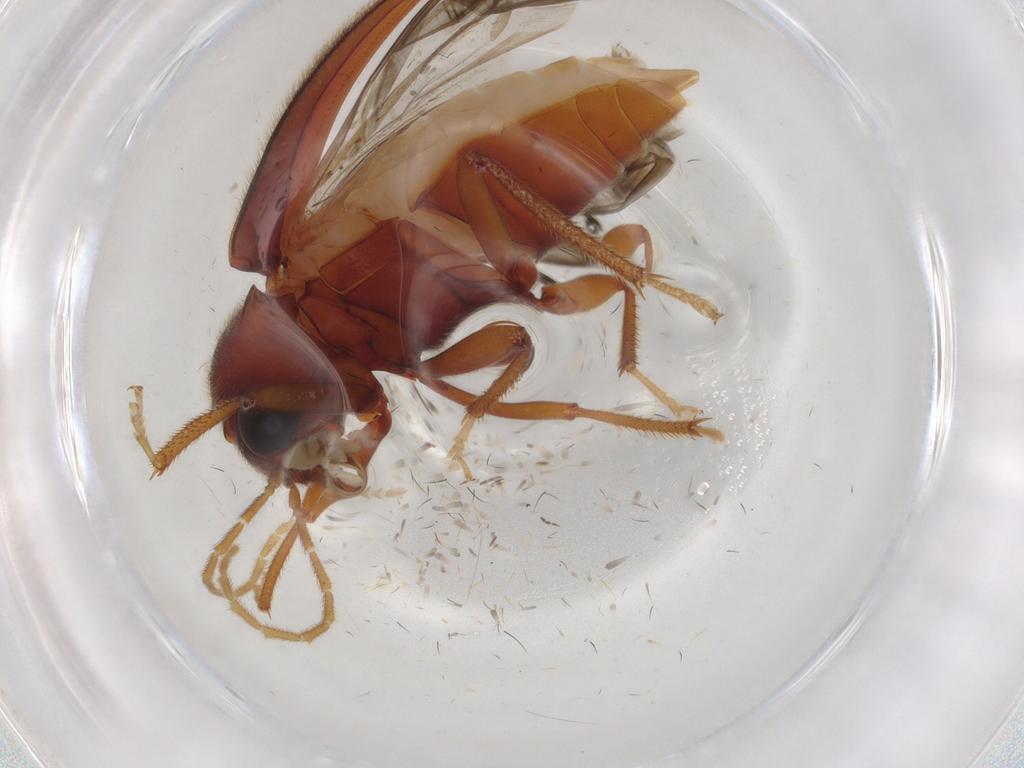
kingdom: Animalia
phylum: Arthropoda
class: Insecta
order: Coleoptera
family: Ptilodactylidae
